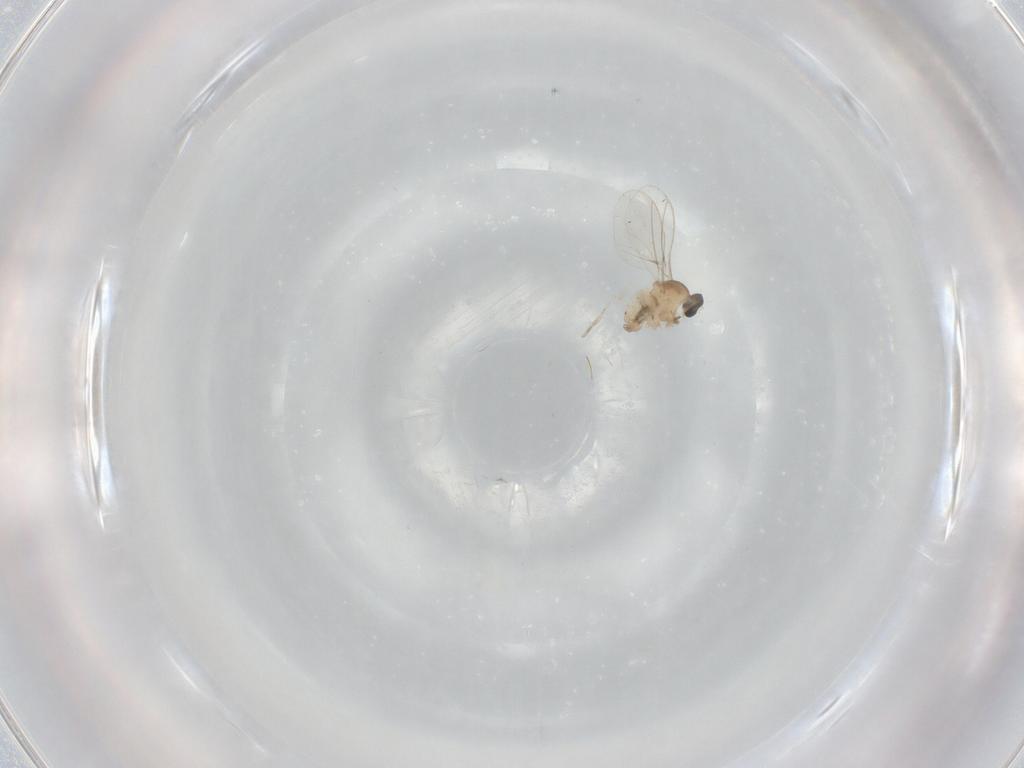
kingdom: Animalia
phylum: Arthropoda
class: Insecta
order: Diptera
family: Cecidomyiidae
